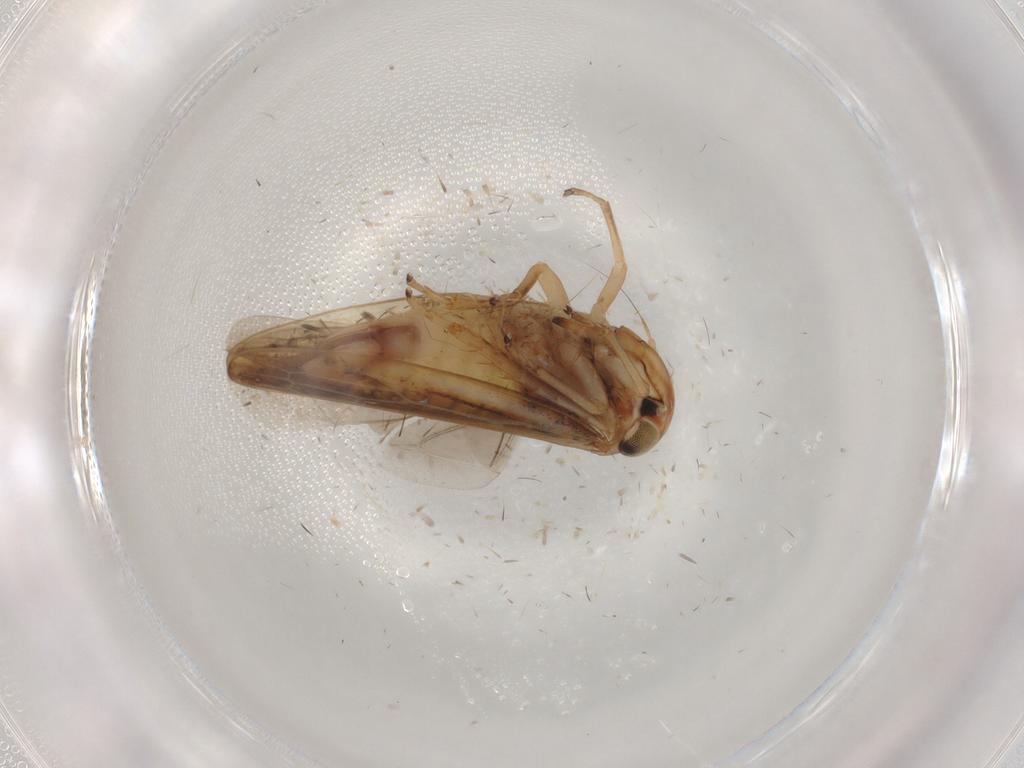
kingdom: Animalia
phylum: Arthropoda
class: Insecta
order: Hemiptera
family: Cicadellidae
